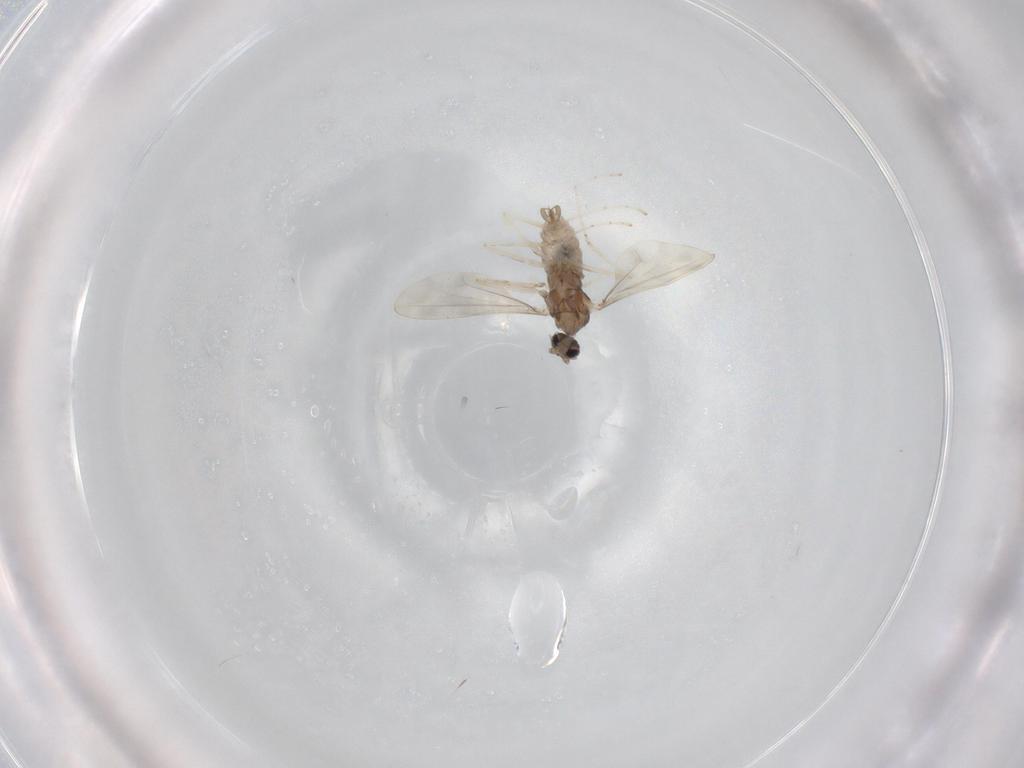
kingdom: Animalia
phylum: Arthropoda
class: Insecta
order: Diptera
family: Cecidomyiidae
